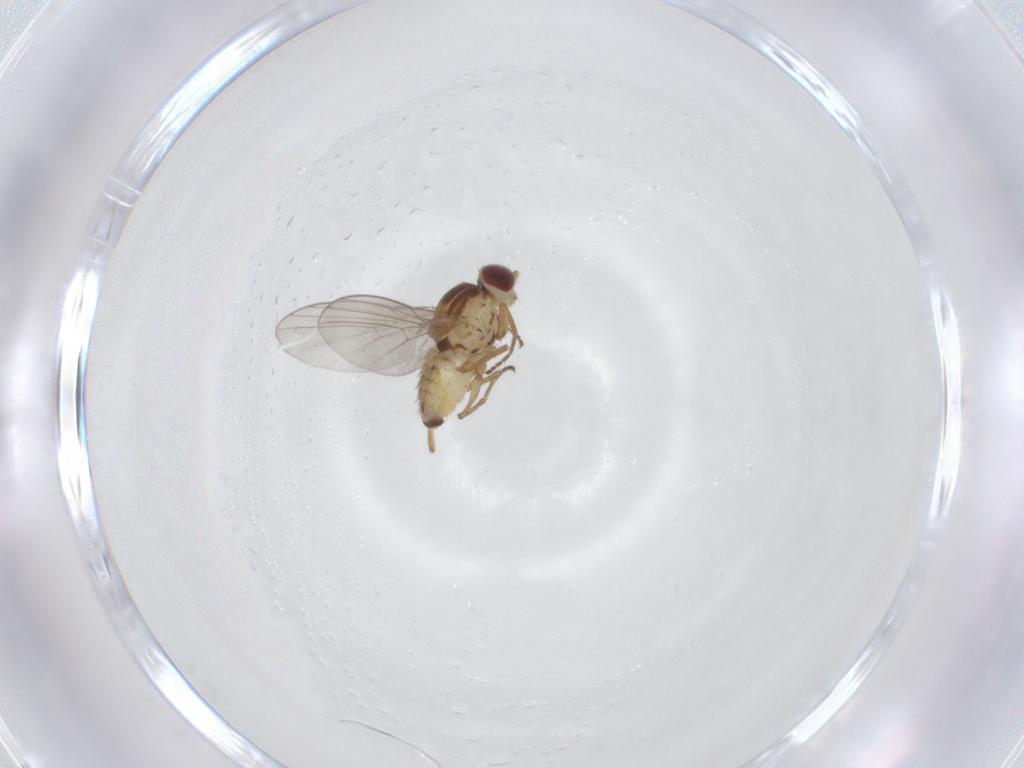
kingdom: Animalia
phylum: Arthropoda
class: Insecta
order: Diptera
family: Agromyzidae
